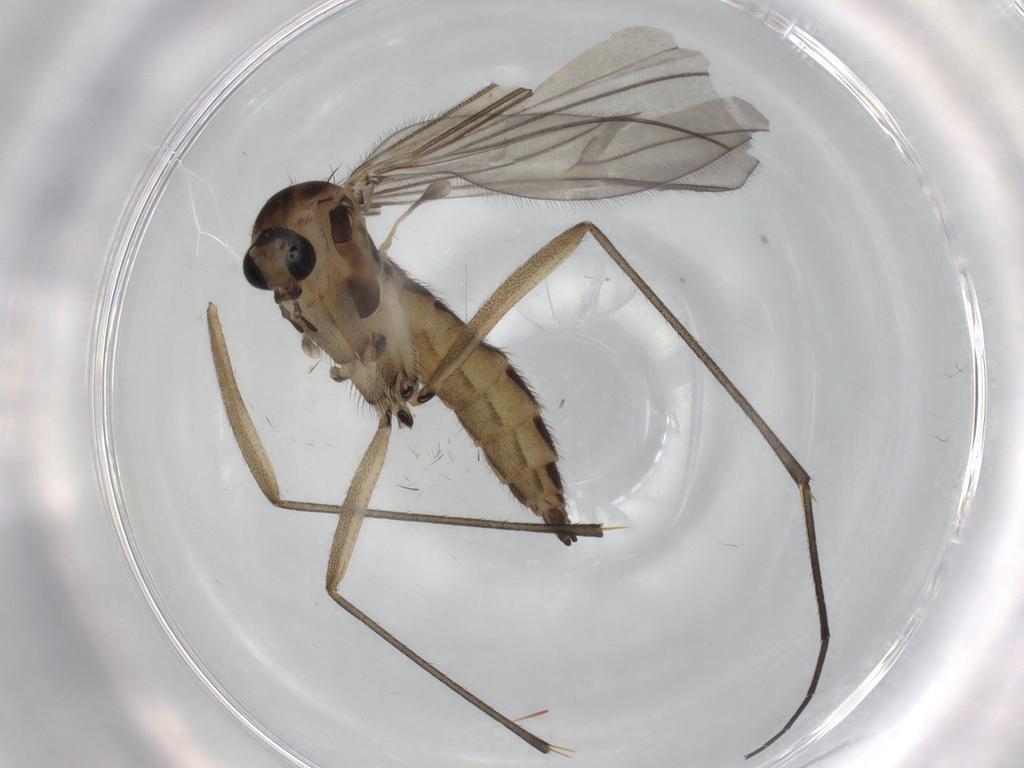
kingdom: Animalia
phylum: Arthropoda
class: Insecta
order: Diptera
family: Sciaridae
